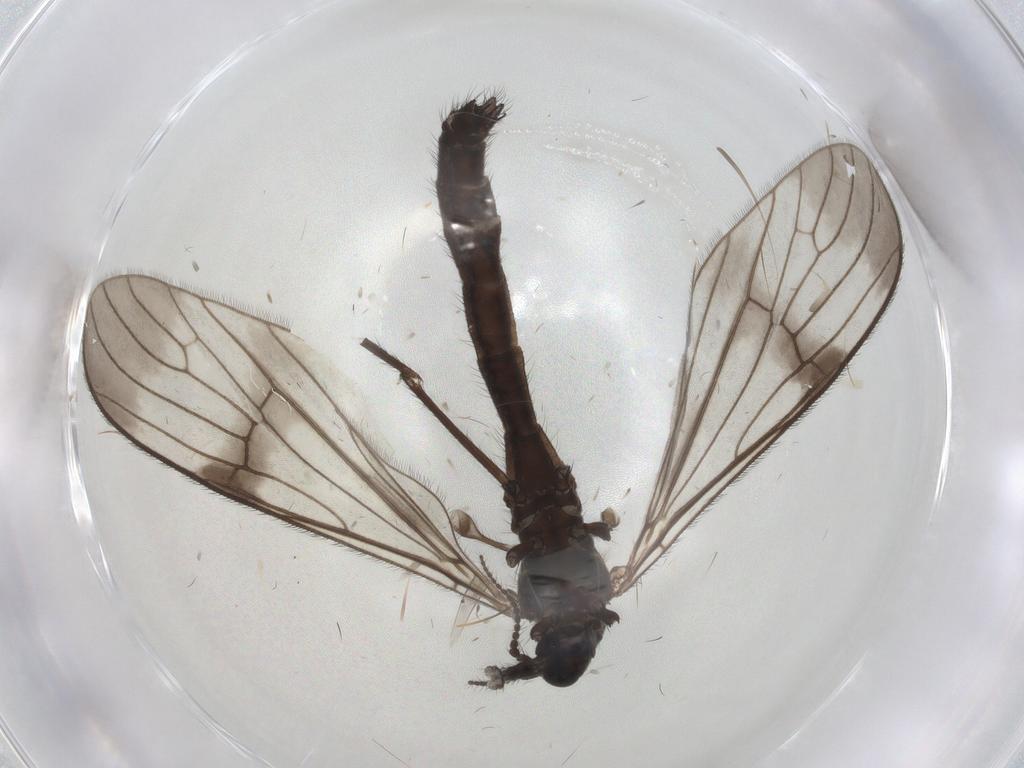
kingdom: Animalia
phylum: Arthropoda
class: Insecta
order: Diptera
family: Limoniidae
